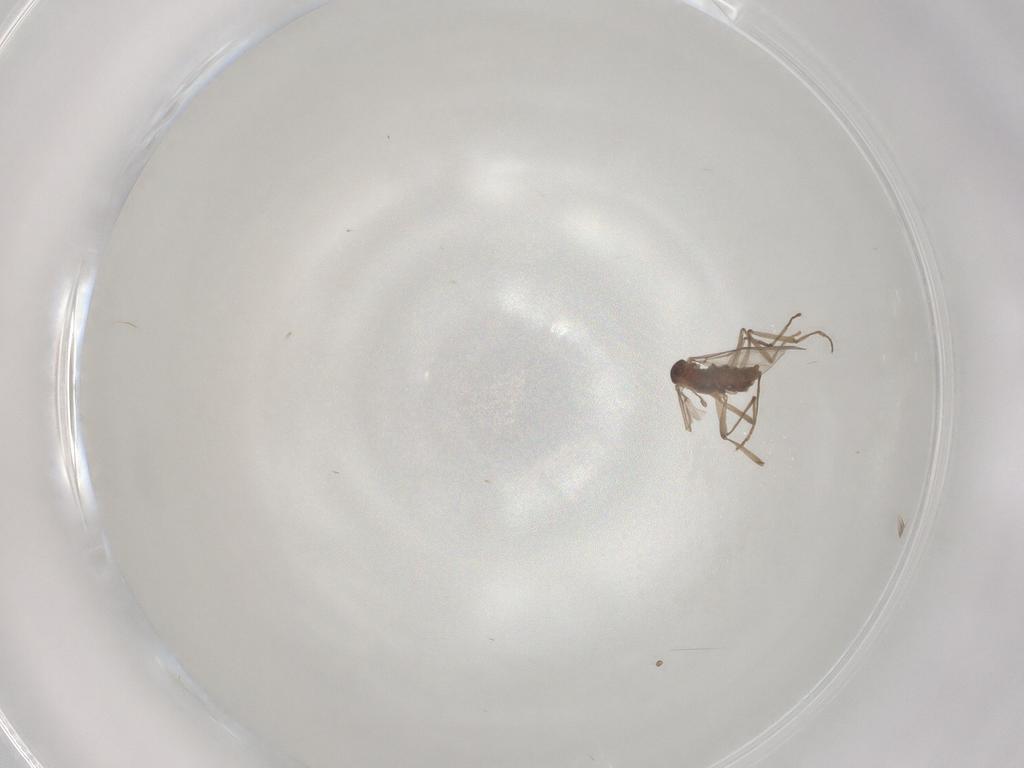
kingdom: Animalia
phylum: Arthropoda
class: Insecta
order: Diptera
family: Cecidomyiidae
